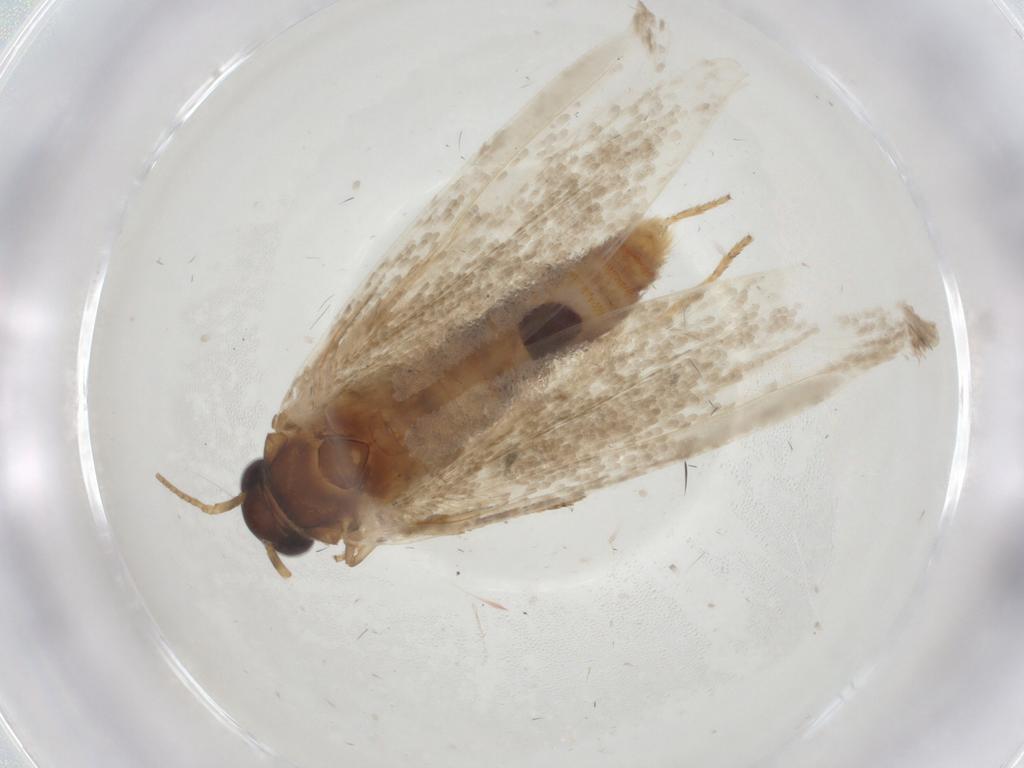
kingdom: Animalia
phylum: Arthropoda
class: Insecta
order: Lepidoptera
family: Coleophoridae
